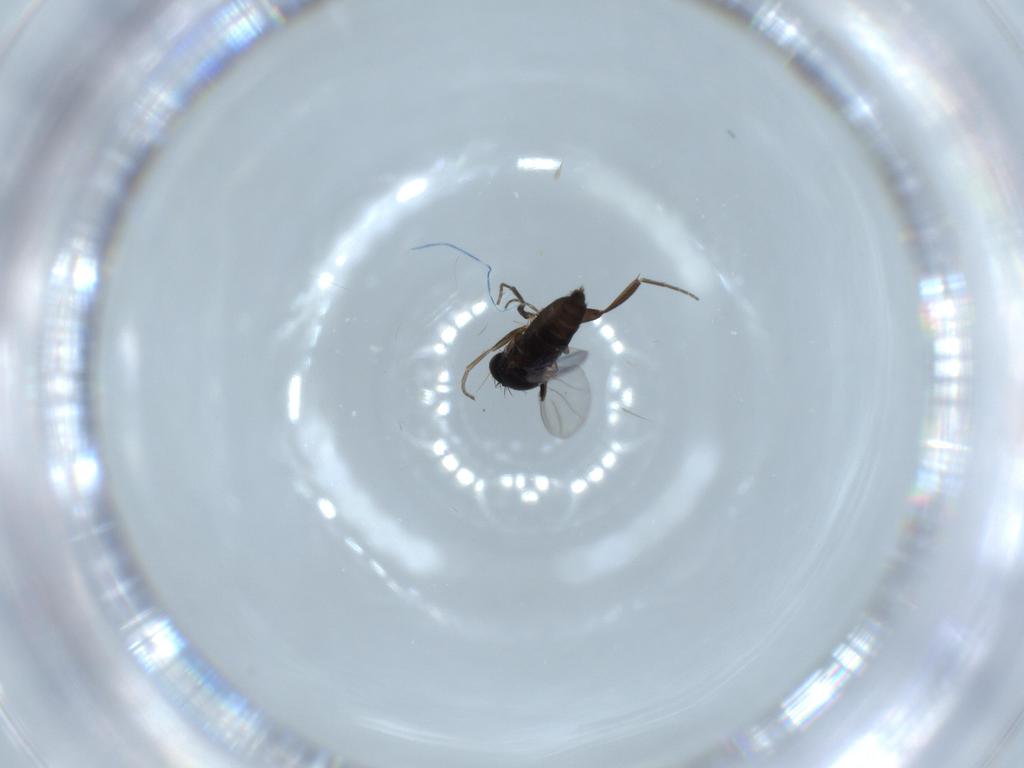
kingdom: Animalia
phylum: Arthropoda
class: Insecta
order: Diptera
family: Phoridae
